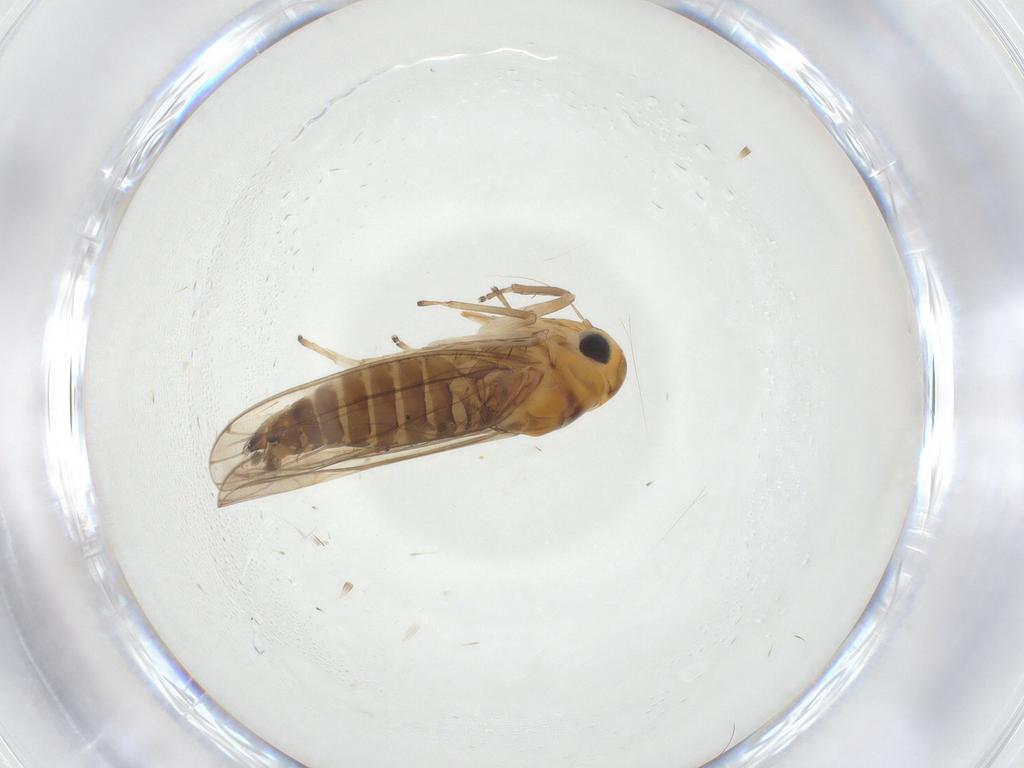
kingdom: Animalia
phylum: Arthropoda
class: Insecta
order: Hemiptera
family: Cicadellidae
